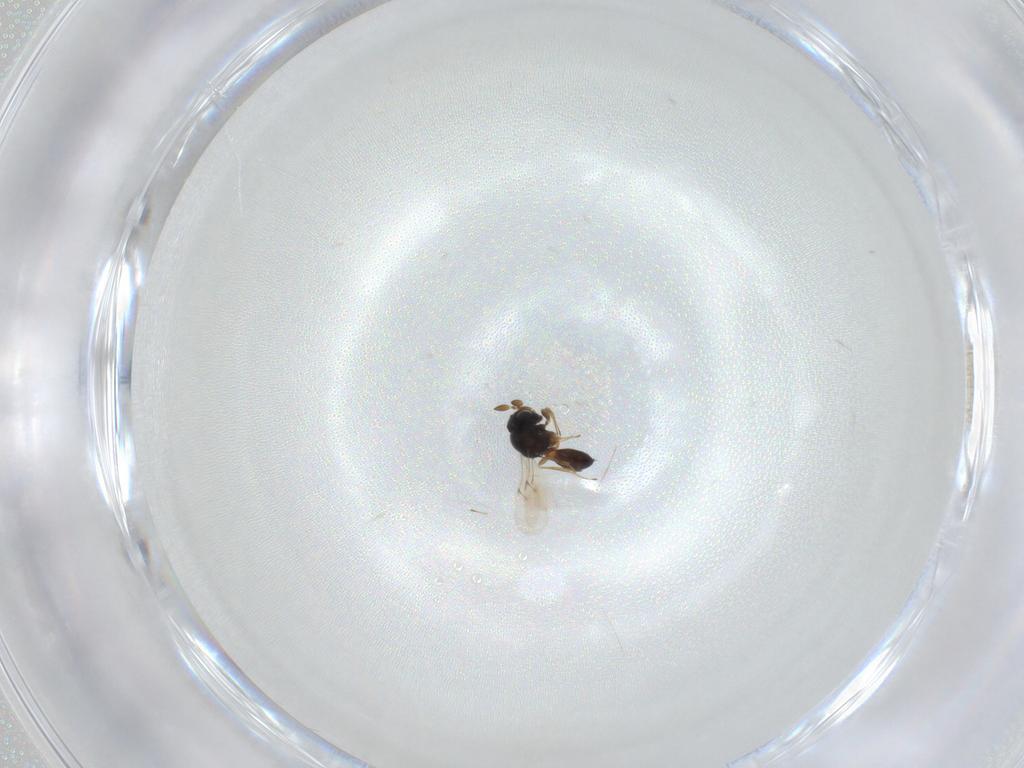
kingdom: Animalia
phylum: Arthropoda
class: Insecta
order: Hymenoptera
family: Scelionidae
